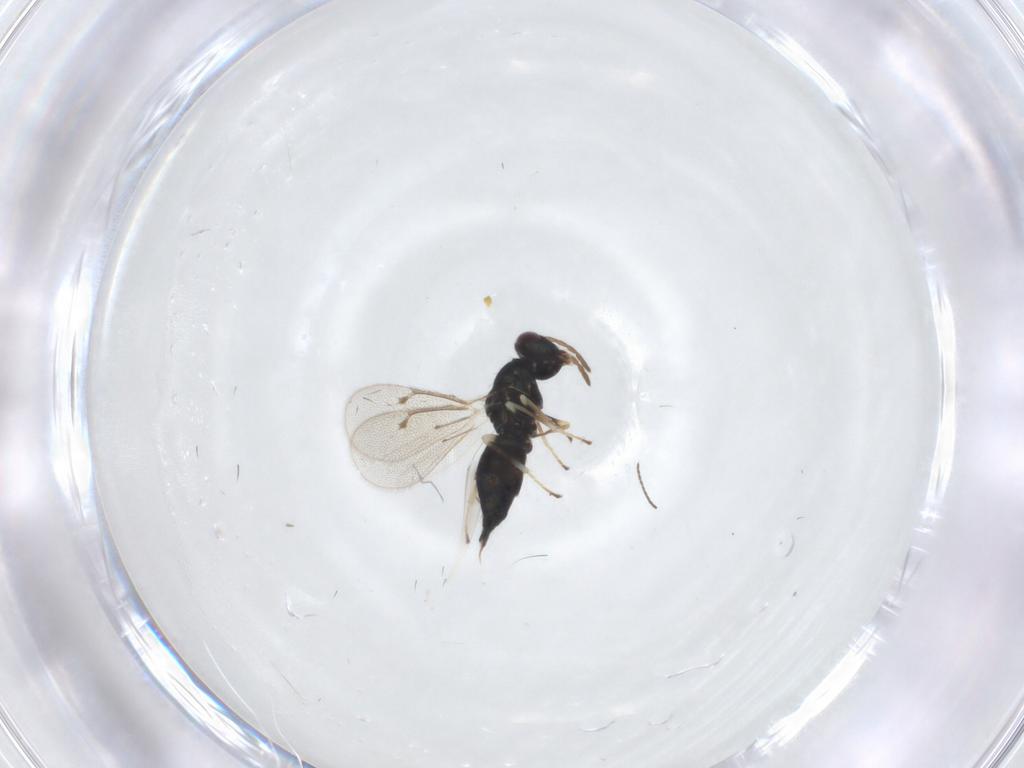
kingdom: Animalia
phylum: Arthropoda
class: Insecta
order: Hymenoptera
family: Eulophidae
